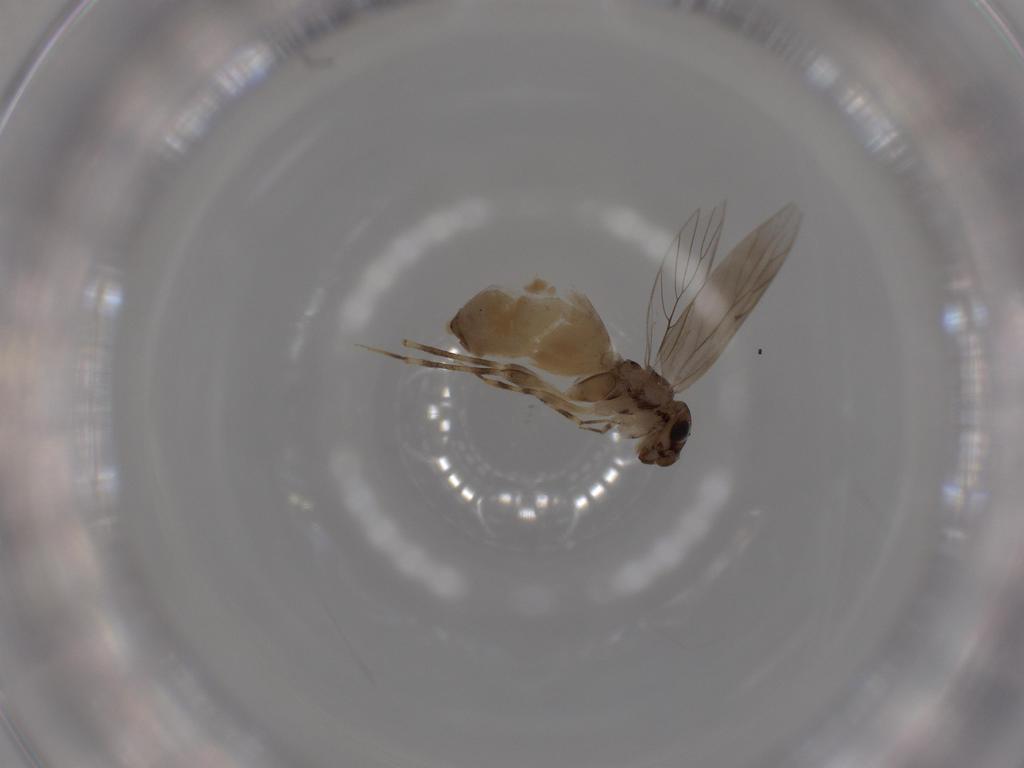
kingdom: Animalia
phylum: Arthropoda
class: Insecta
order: Psocodea
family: Lepidopsocidae
